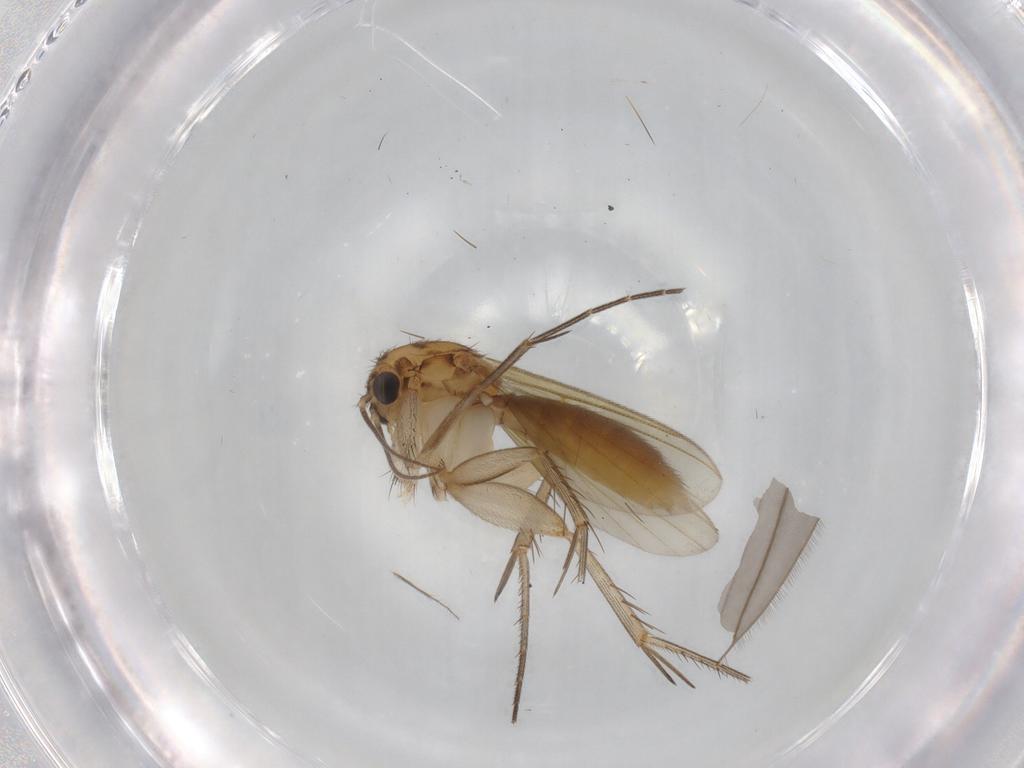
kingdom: Animalia
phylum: Arthropoda
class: Insecta
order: Diptera
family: Mycetophilidae
